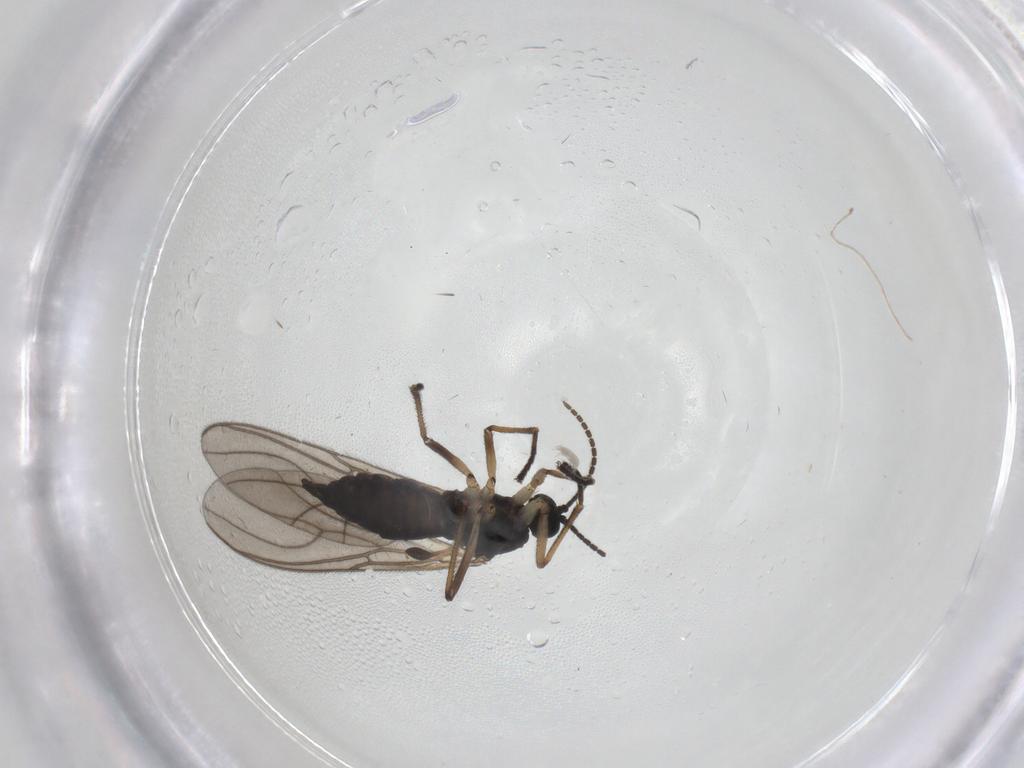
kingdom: Animalia
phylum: Arthropoda
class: Insecta
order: Diptera
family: Sciaridae
